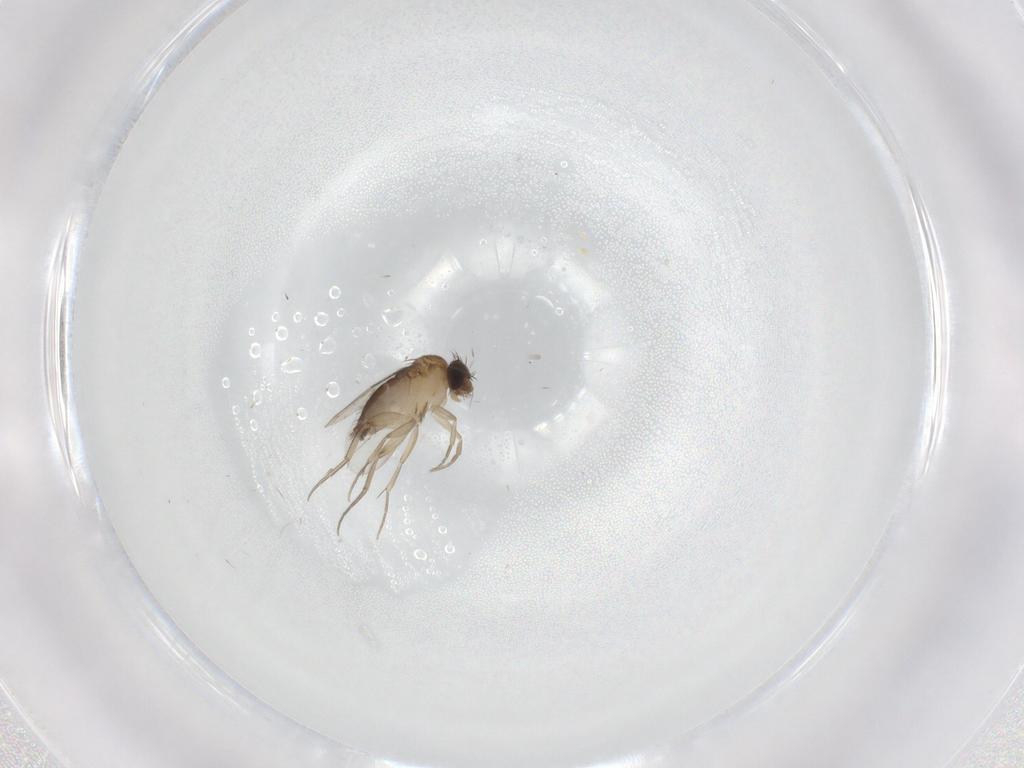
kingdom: Animalia
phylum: Arthropoda
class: Insecta
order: Diptera
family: Phoridae
